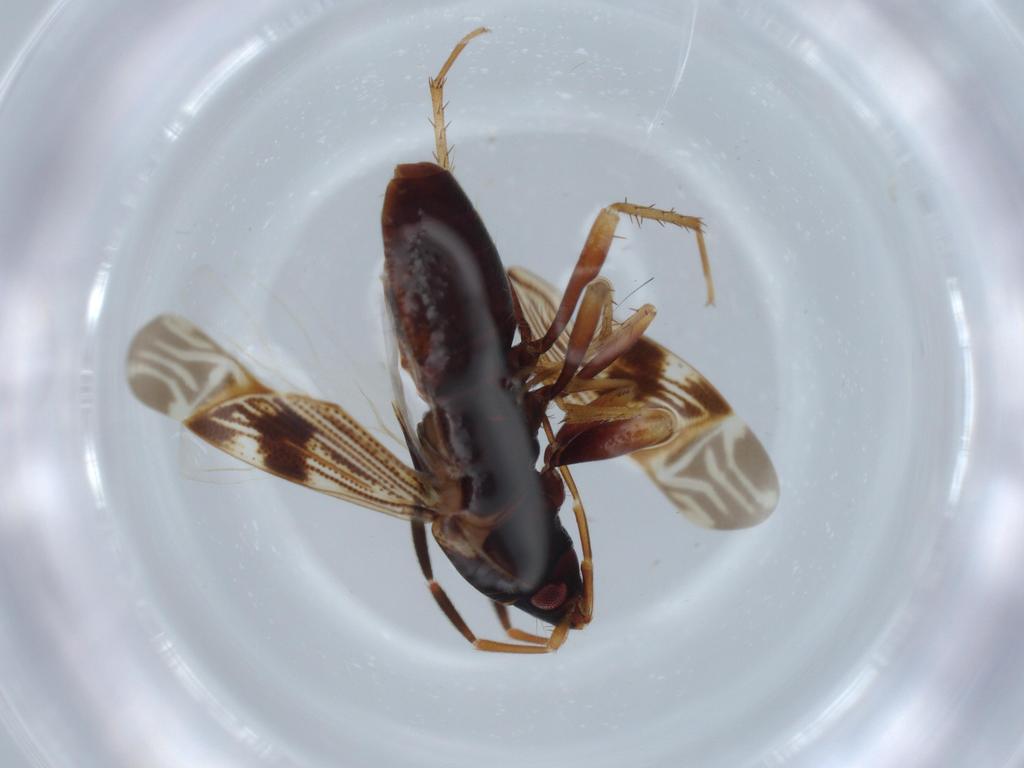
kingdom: Animalia
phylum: Arthropoda
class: Insecta
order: Hemiptera
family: Rhyparochromidae
